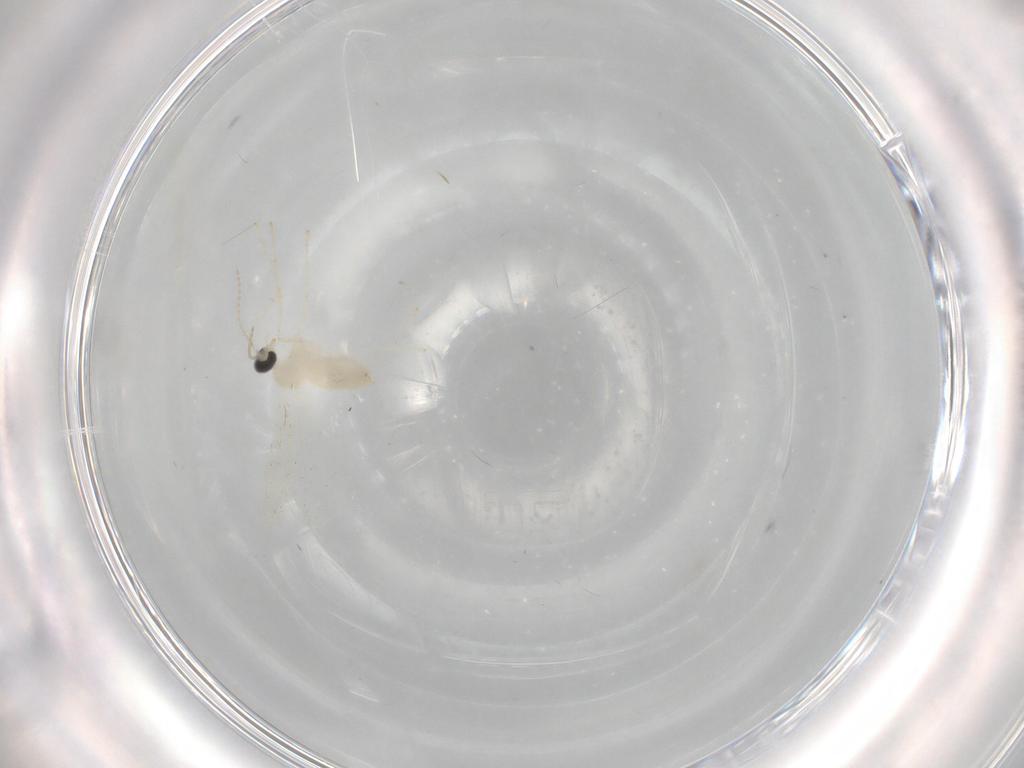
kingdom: Animalia
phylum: Arthropoda
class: Insecta
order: Diptera
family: Cecidomyiidae
